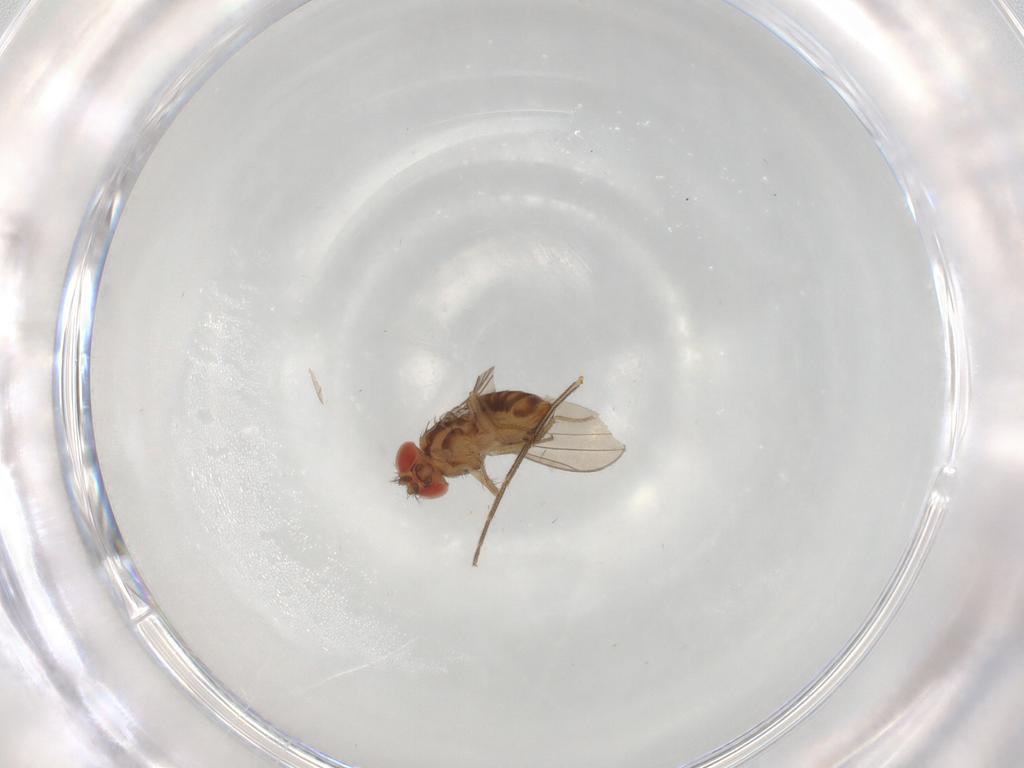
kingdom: Animalia
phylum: Arthropoda
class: Insecta
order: Diptera
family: Drosophilidae
